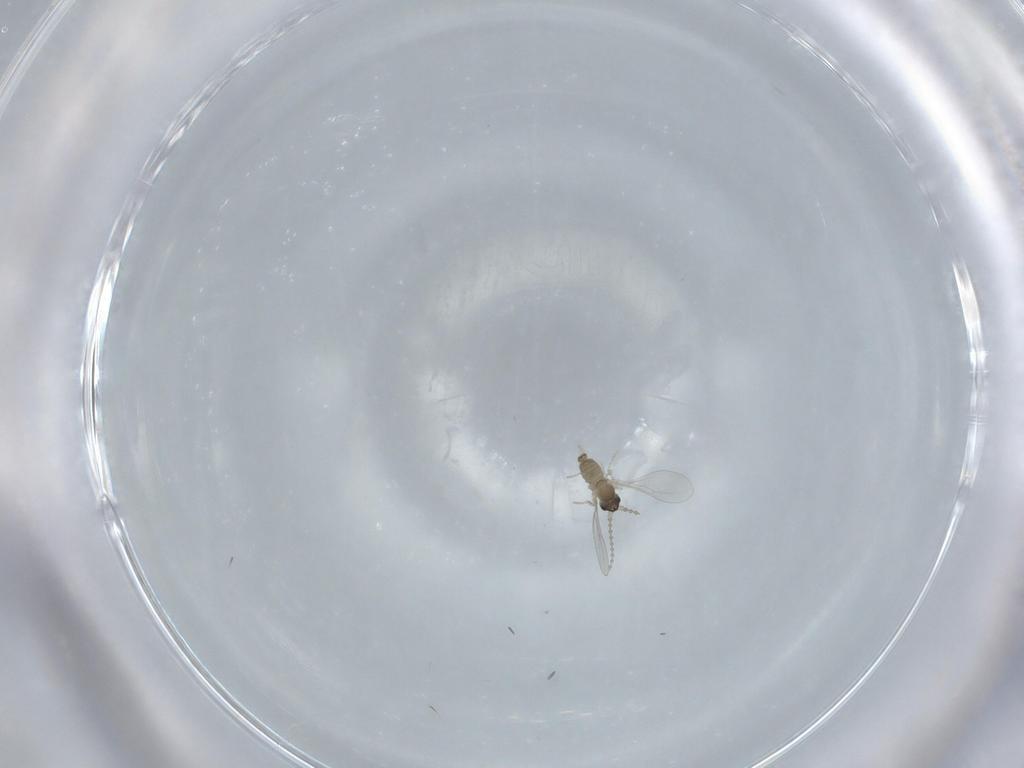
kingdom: Animalia
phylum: Arthropoda
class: Insecta
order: Diptera
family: Cecidomyiidae
